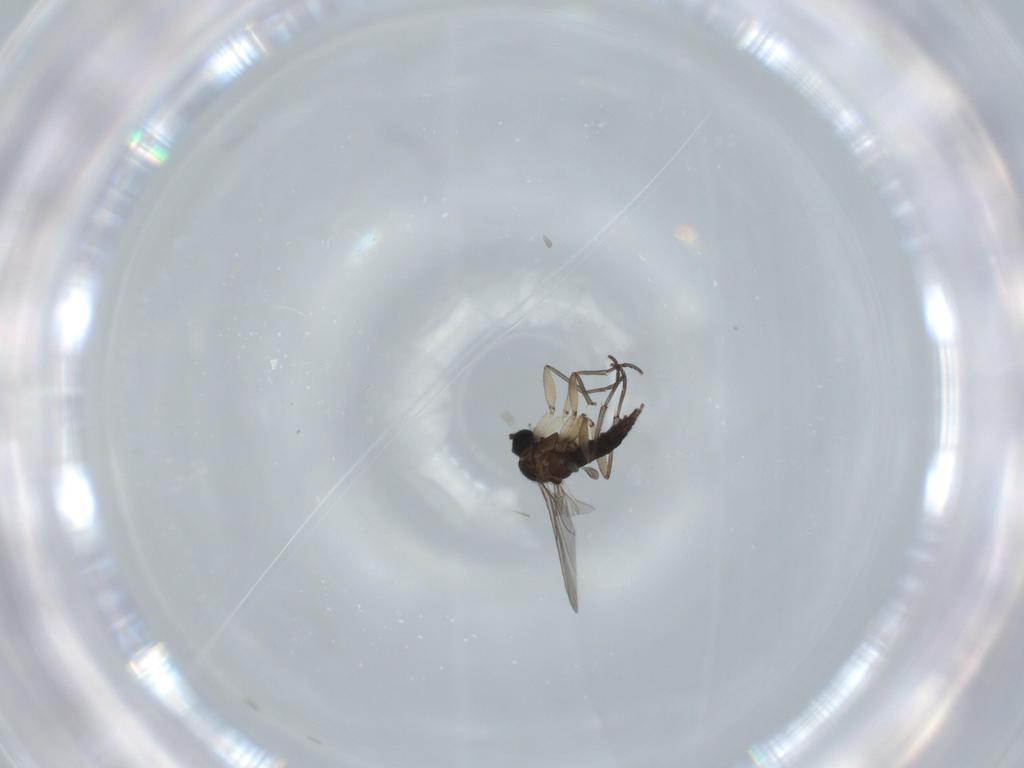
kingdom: Animalia
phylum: Arthropoda
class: Insecta
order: Diptera
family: Sciaridae
